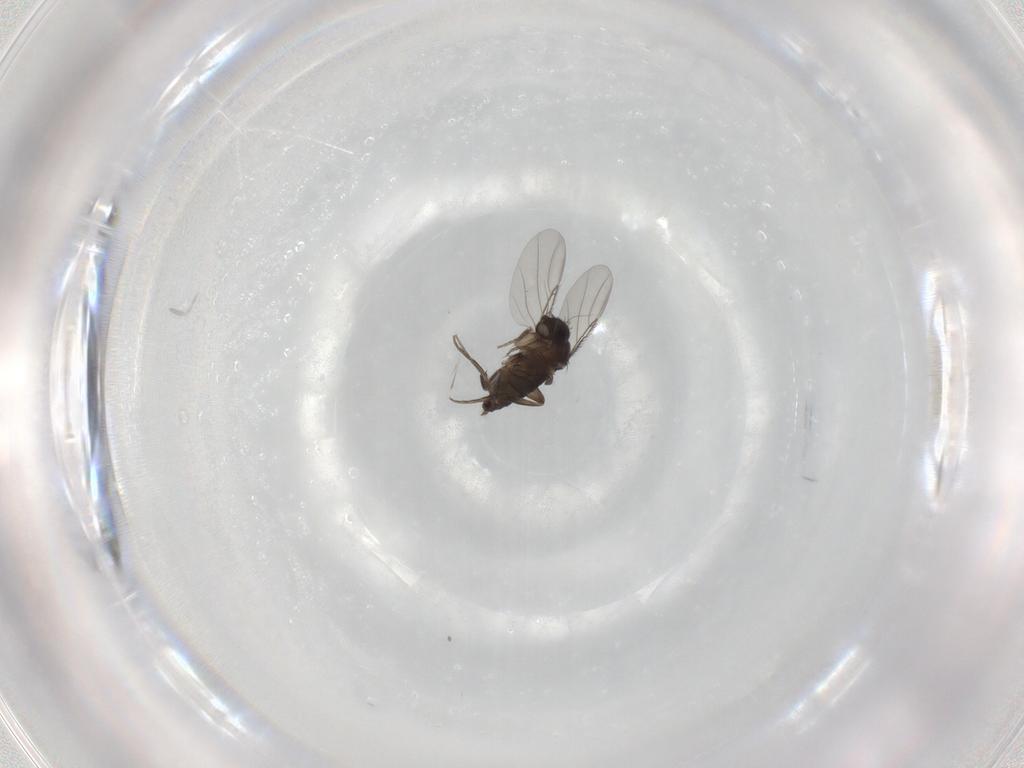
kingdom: Animalia
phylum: Arthropoda
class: Insecta
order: Diptera
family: Phoridae
